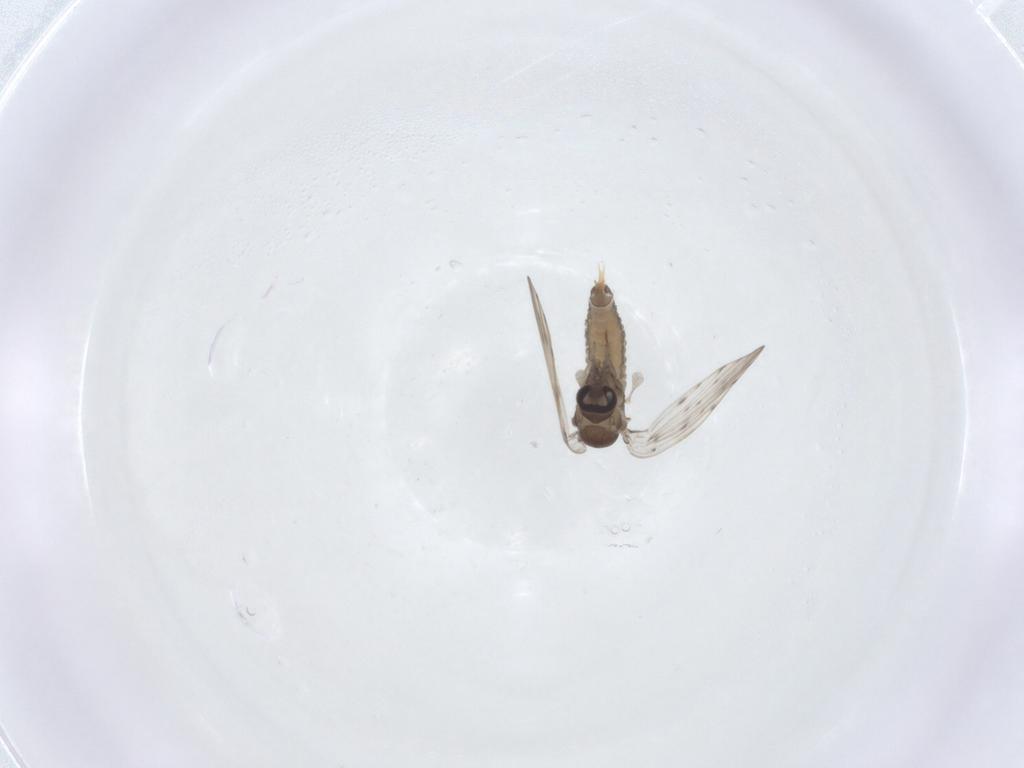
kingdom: Animalia
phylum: Arthropoda
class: Insecta
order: Diptera
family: Psychodidae
